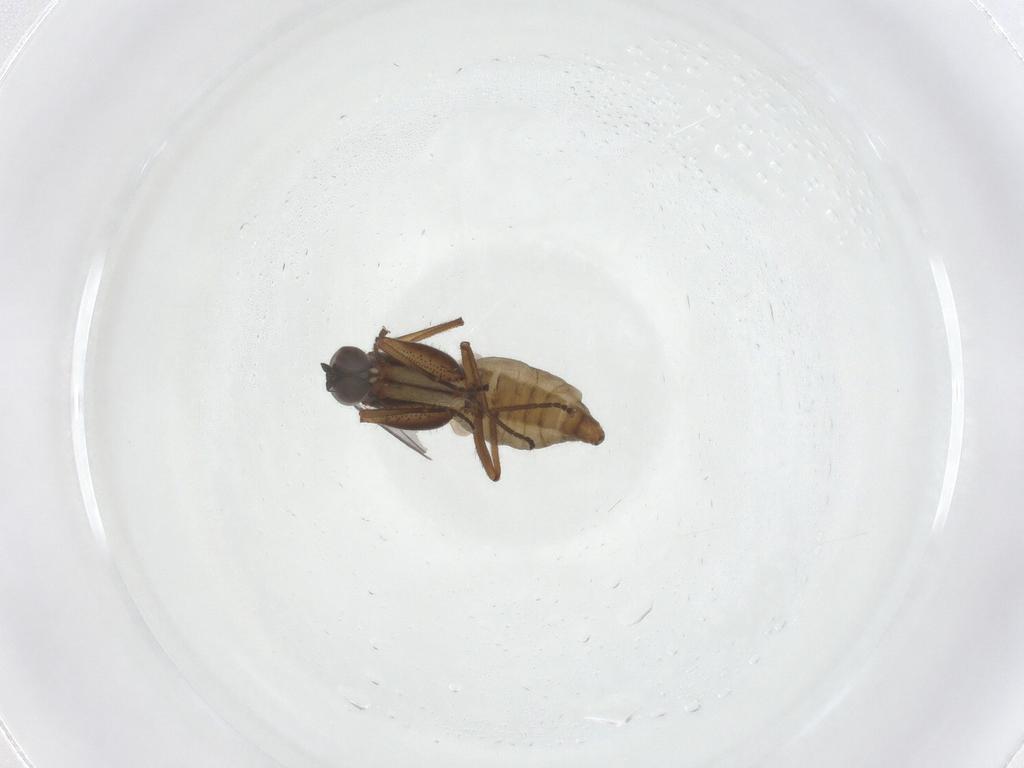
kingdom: Animalia
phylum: Arthropoda
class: Insecta
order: Diptera
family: Empididae
